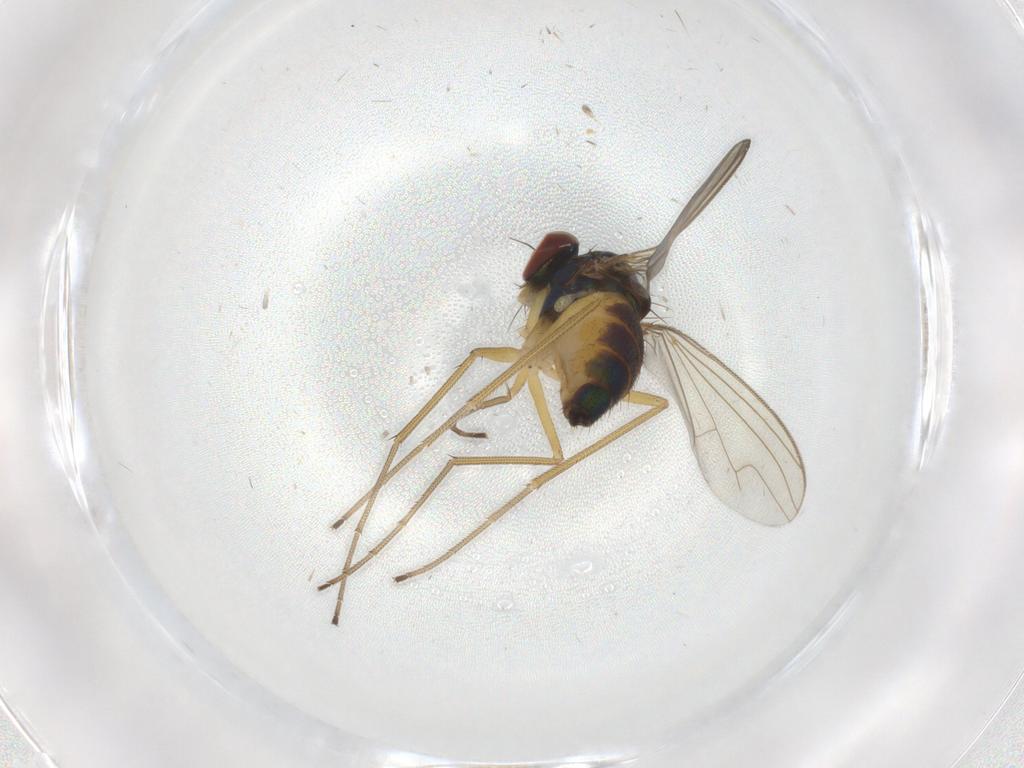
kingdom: Animalia
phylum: Arthropoda
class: Insecta
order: Diptera
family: Dolichopodidae
